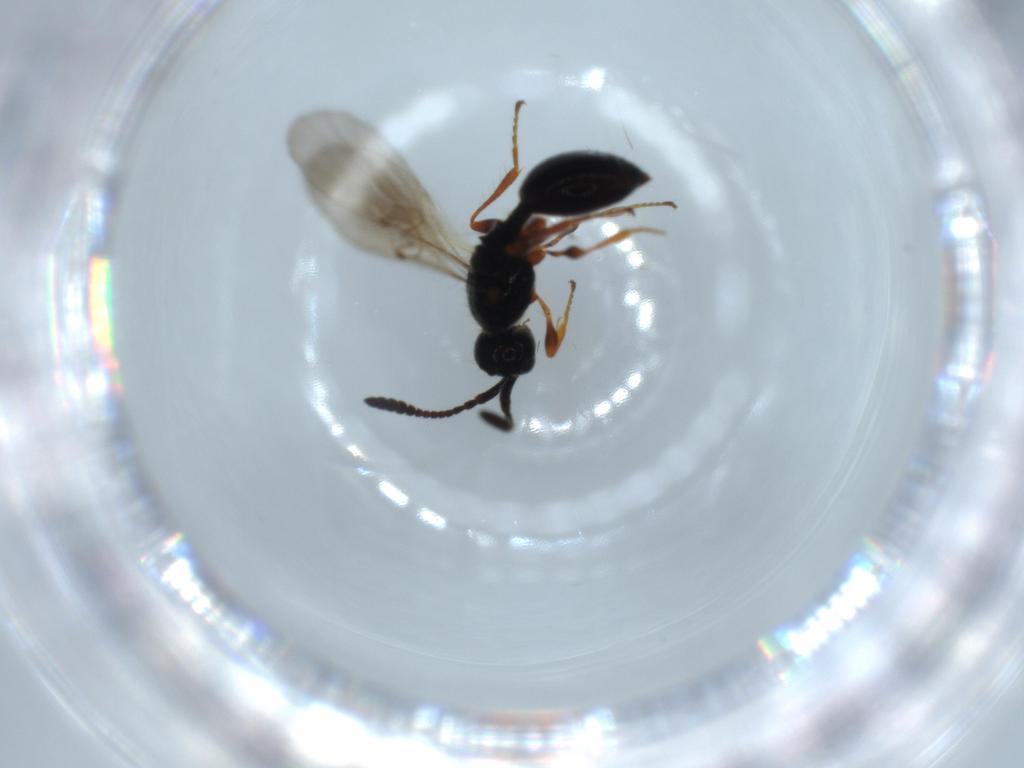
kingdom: Animalia
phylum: Arthropoda
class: Insecta
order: Hymenoptera
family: Diapriidae
